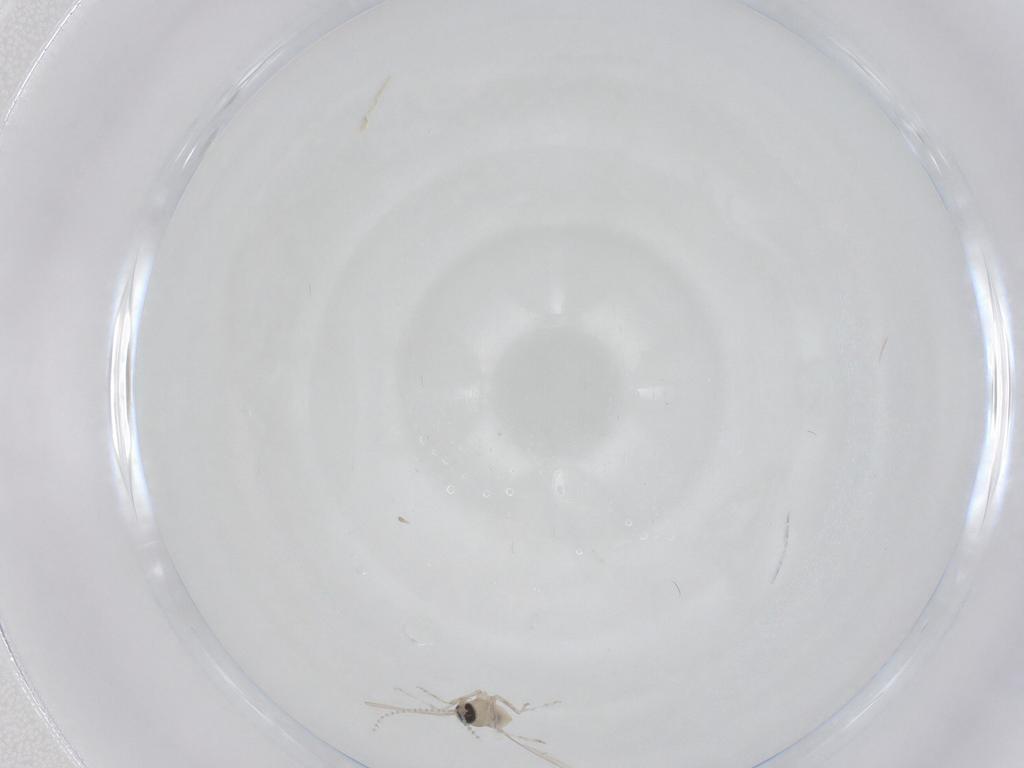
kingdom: Animalia
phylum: Arthropoda
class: Insecta
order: Diptera
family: Cecidomyiidae
